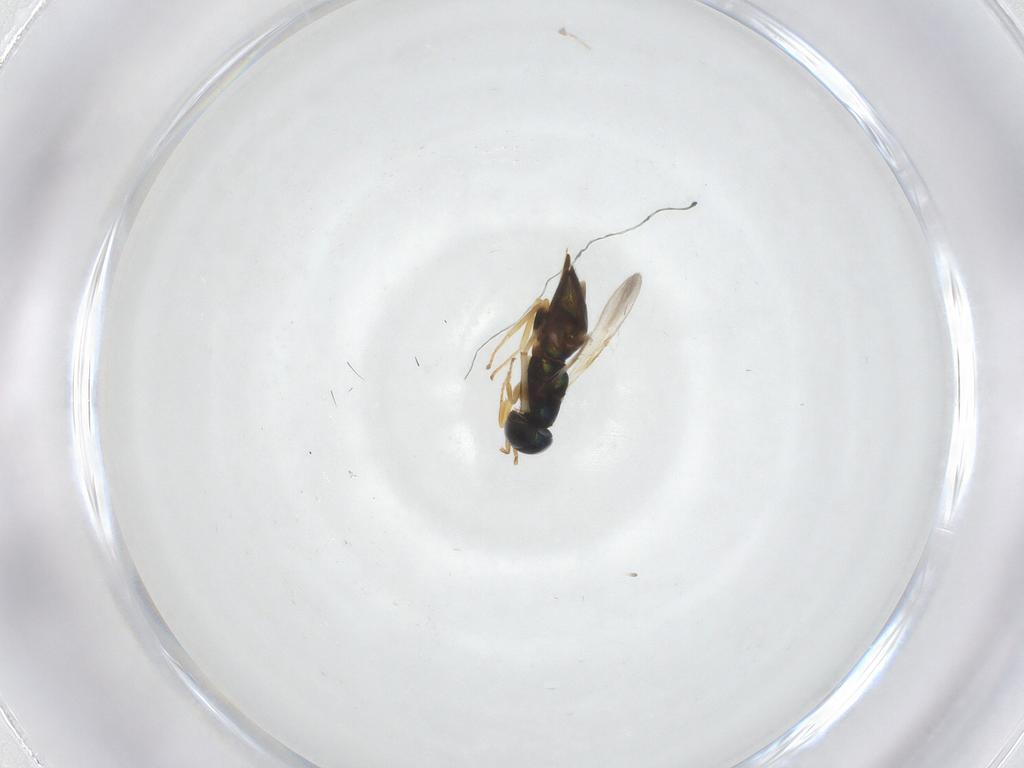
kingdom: Animalia
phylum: Arthropoda
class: Insecta
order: Hymenoptera
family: Encyrtidae
